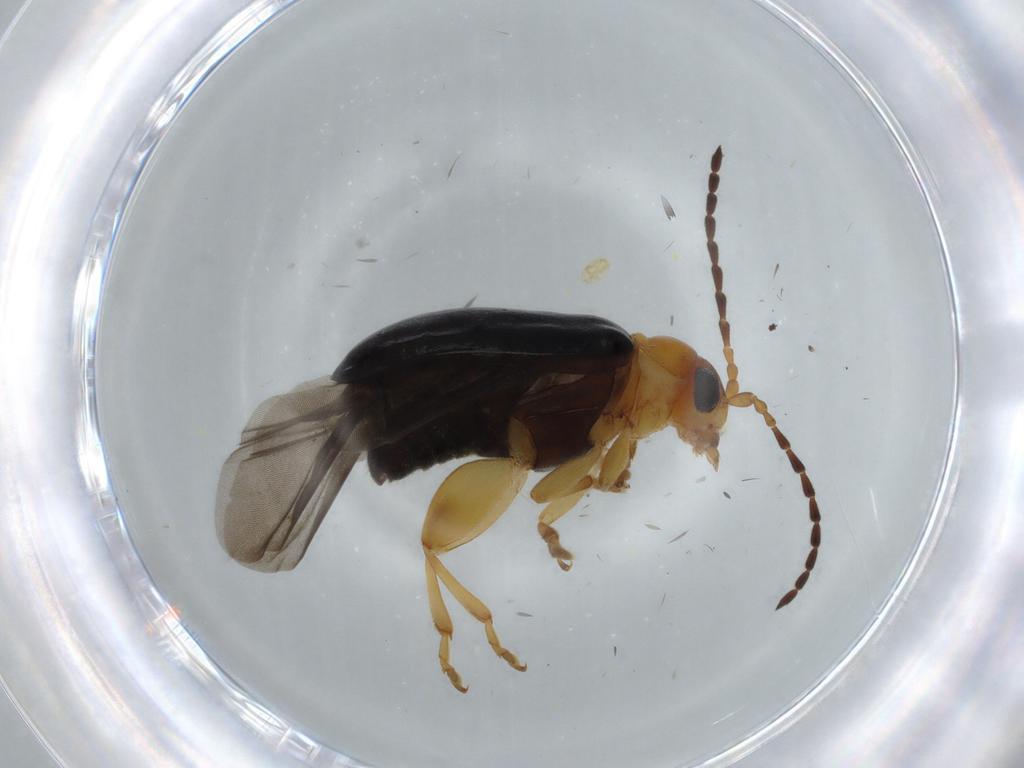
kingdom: Animalia
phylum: Arthropoda
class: Insecta
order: Coleoptera
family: Chrysomelidae
